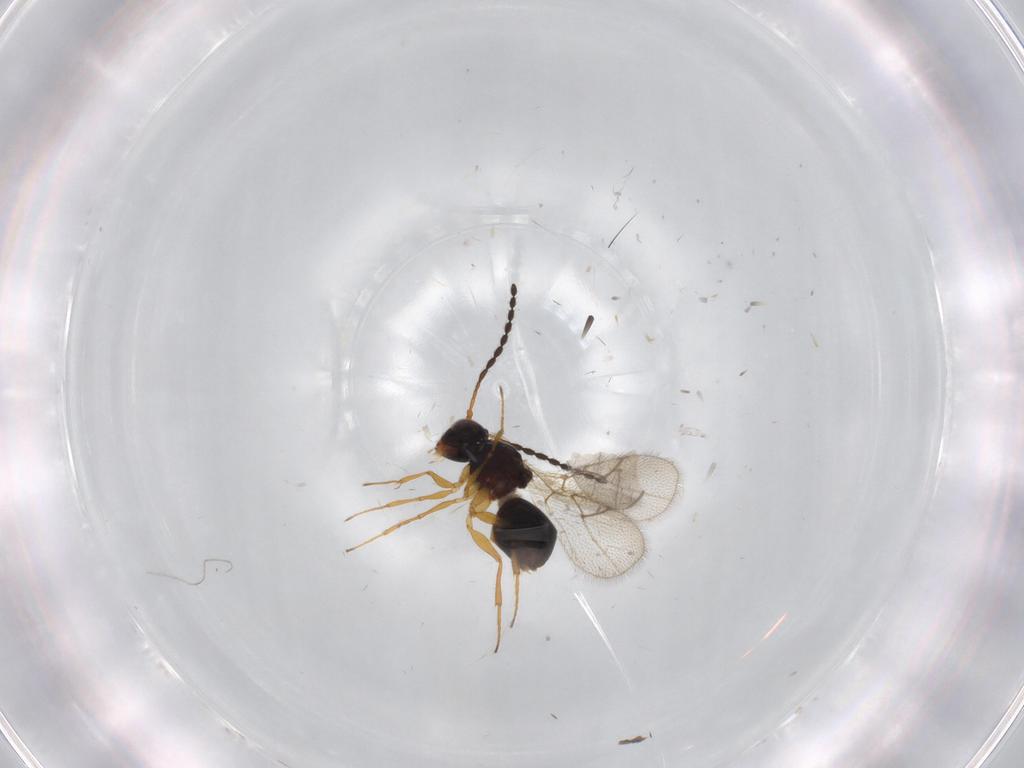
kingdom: Animalia
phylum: Arthropoda
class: Insecta
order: Hymenoptera
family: Figitidae
